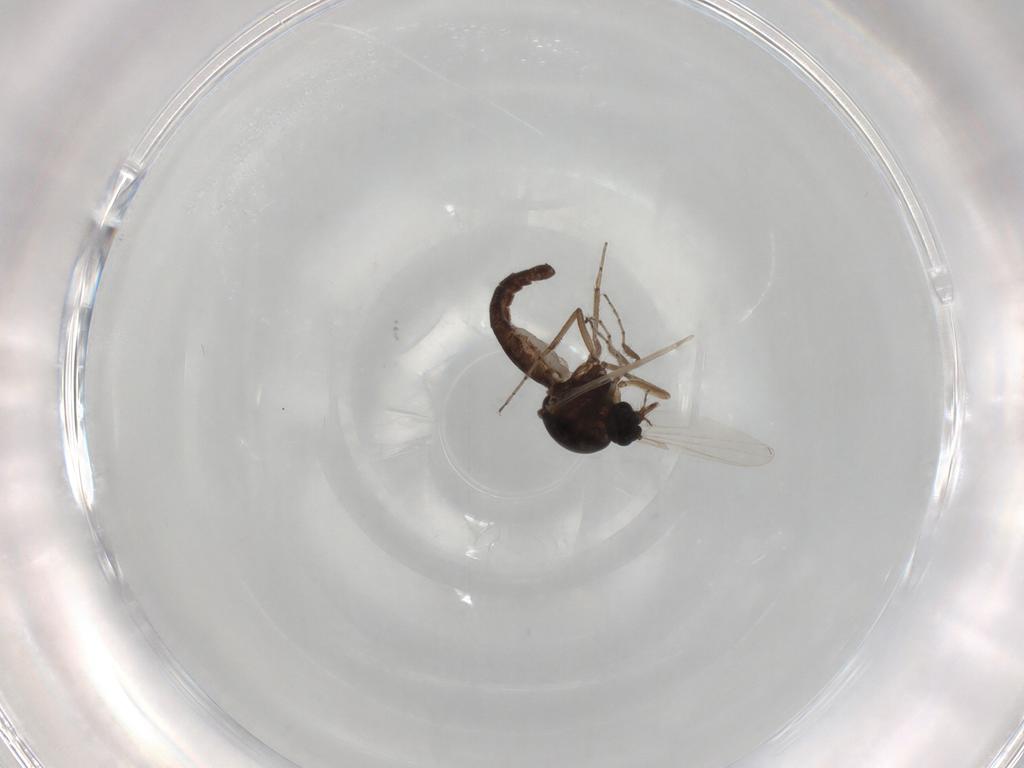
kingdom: Animalia
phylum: Arthropoda
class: Insecta
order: Diptera
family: Ceratopogonidae
